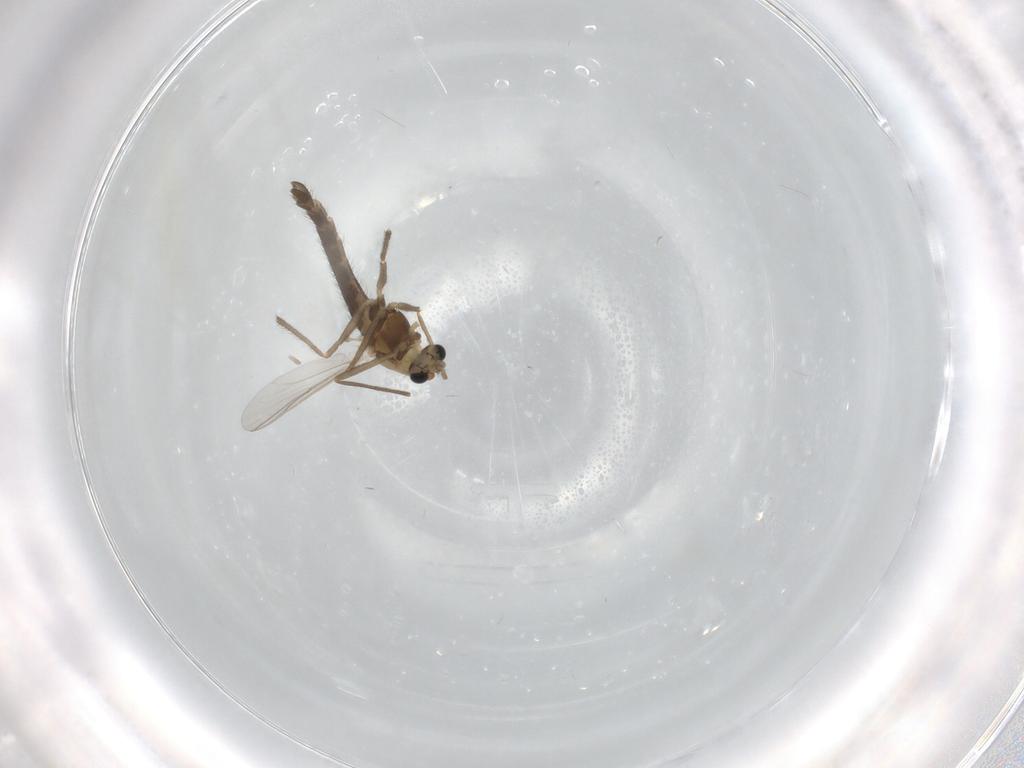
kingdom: Animalia
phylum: Arthropoda
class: Insecta
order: Diptera
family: Chironomidae
